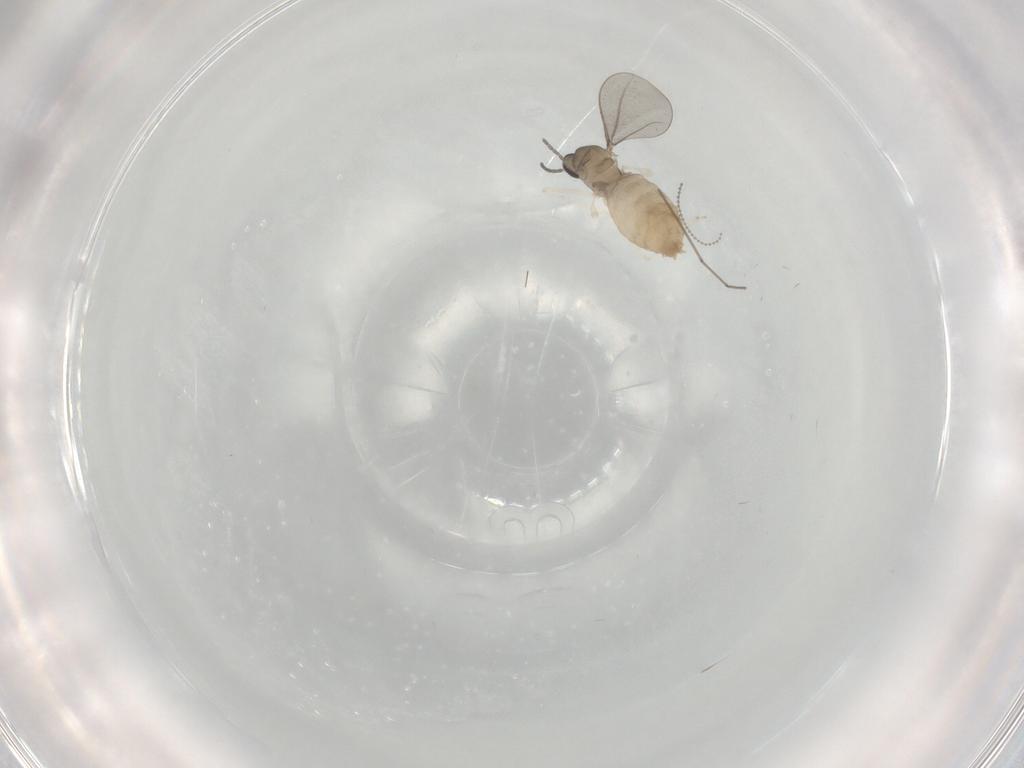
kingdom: Animalia
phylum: Arthropoda
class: Insecta
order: Diptera
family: Cecidomyiidae
